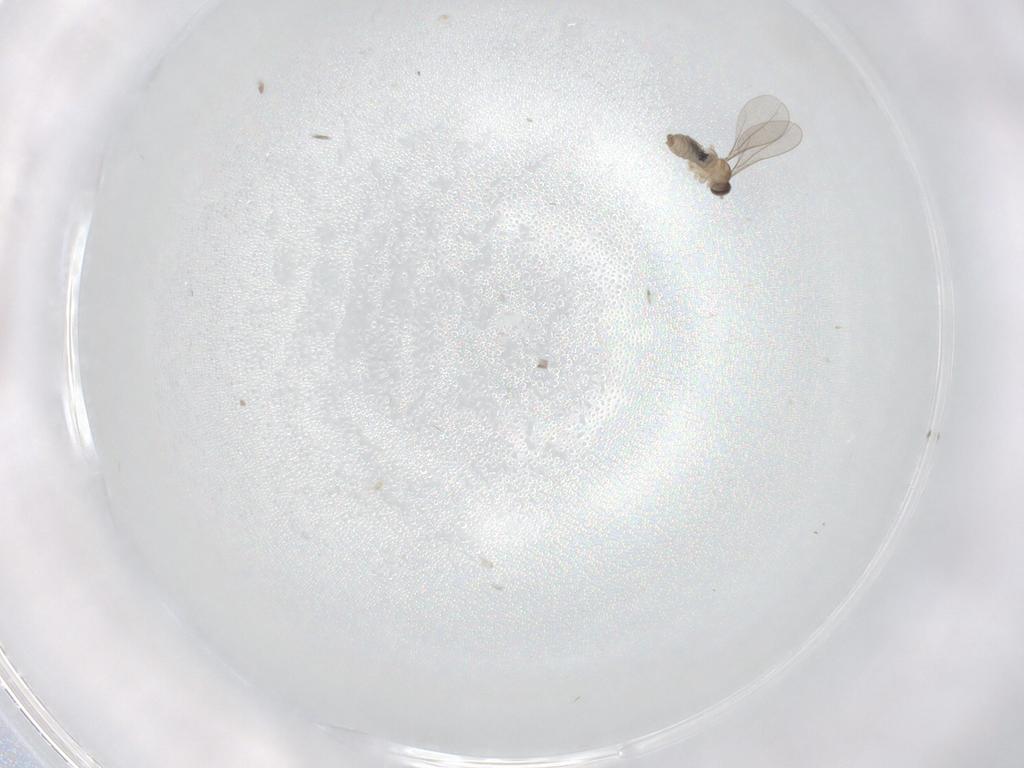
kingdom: Animalia
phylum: Arthropoda
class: Insecta
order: Diptera
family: Cecidomyiidae
